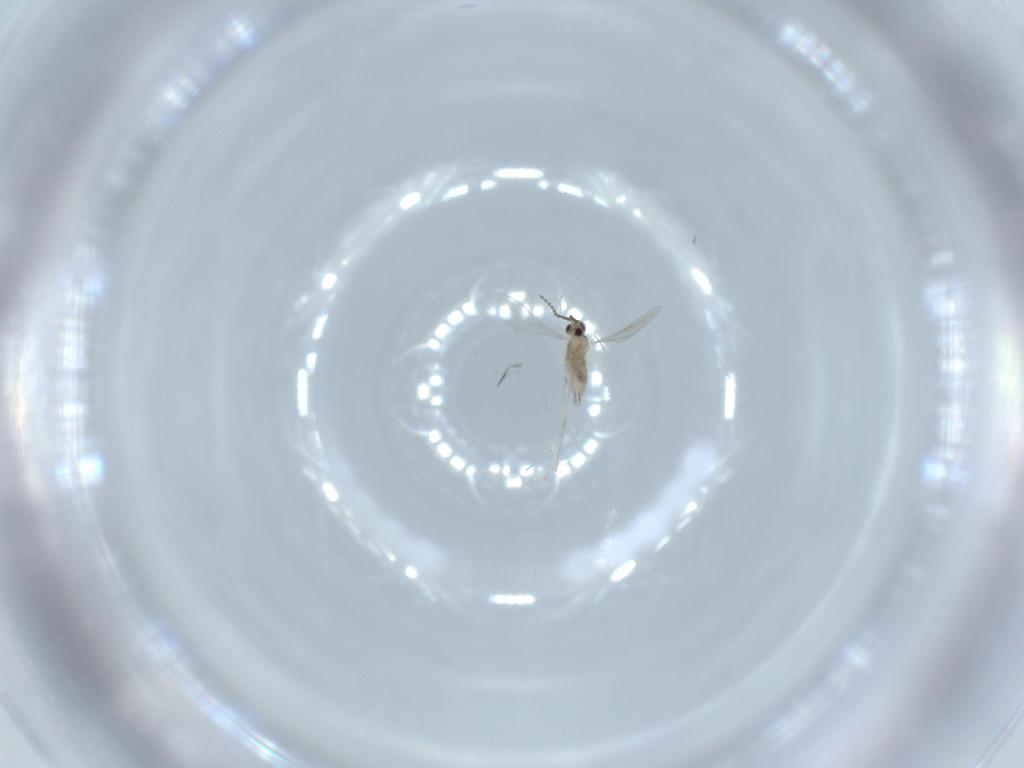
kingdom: Animalia
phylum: Arthropoda
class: Insecta
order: Diptera
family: Cecidomyiidae
